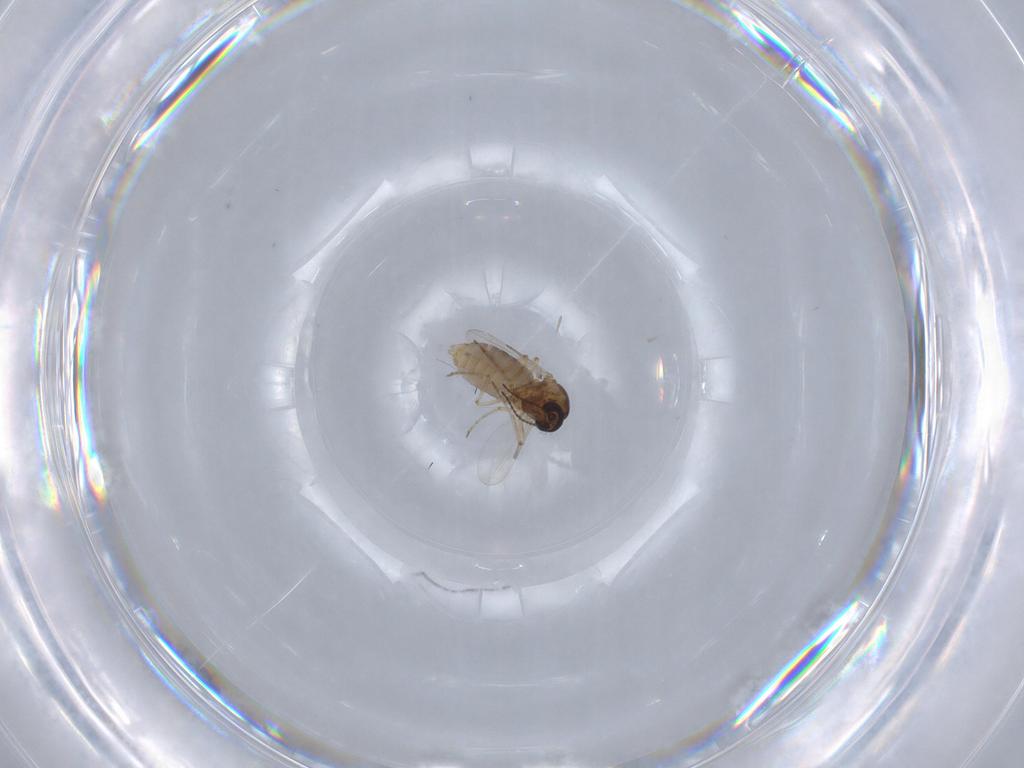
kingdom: Animalia
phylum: Arthropoda
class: Insecta
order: Diptera
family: Ceratopogonidae
